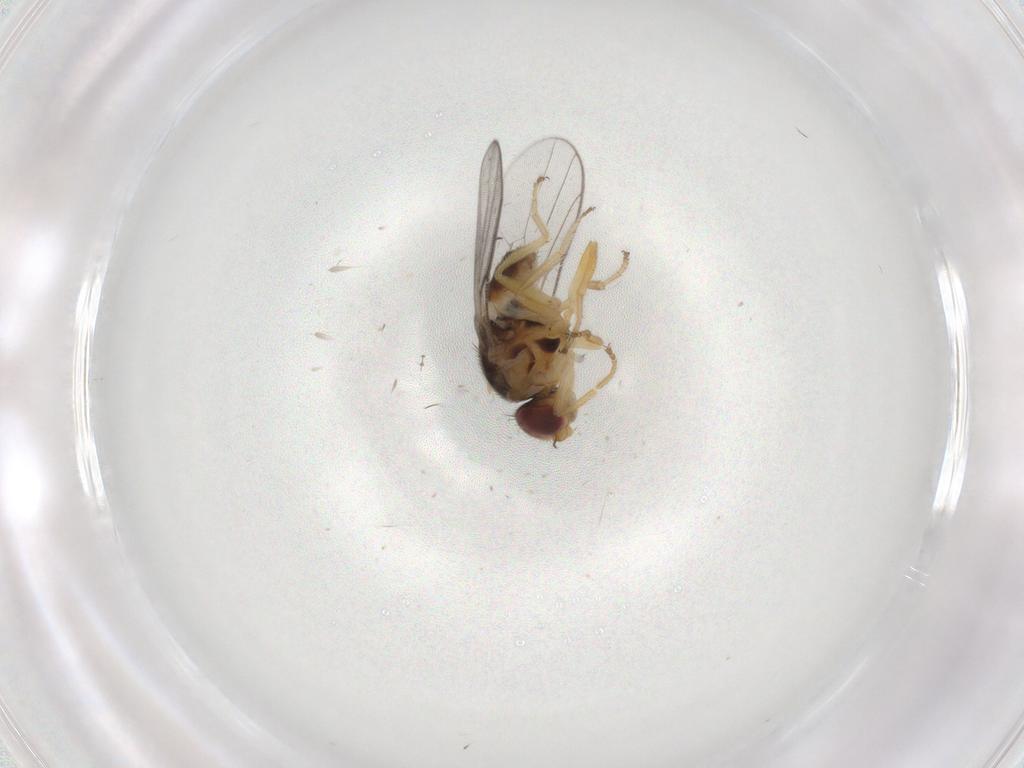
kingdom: Animalia
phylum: Arthropoda
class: Insecta
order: Diptera
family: Chloropidae
